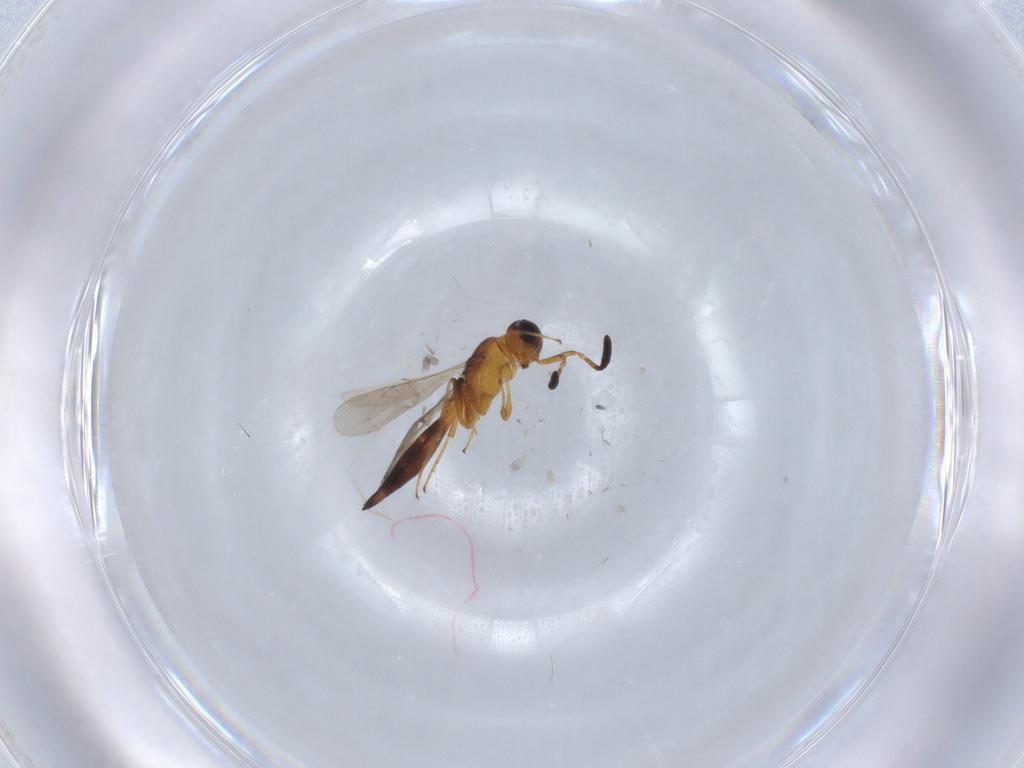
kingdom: Animalia
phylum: Arthropoda
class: Insecta
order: Hymenoptera
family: Scelionidae
